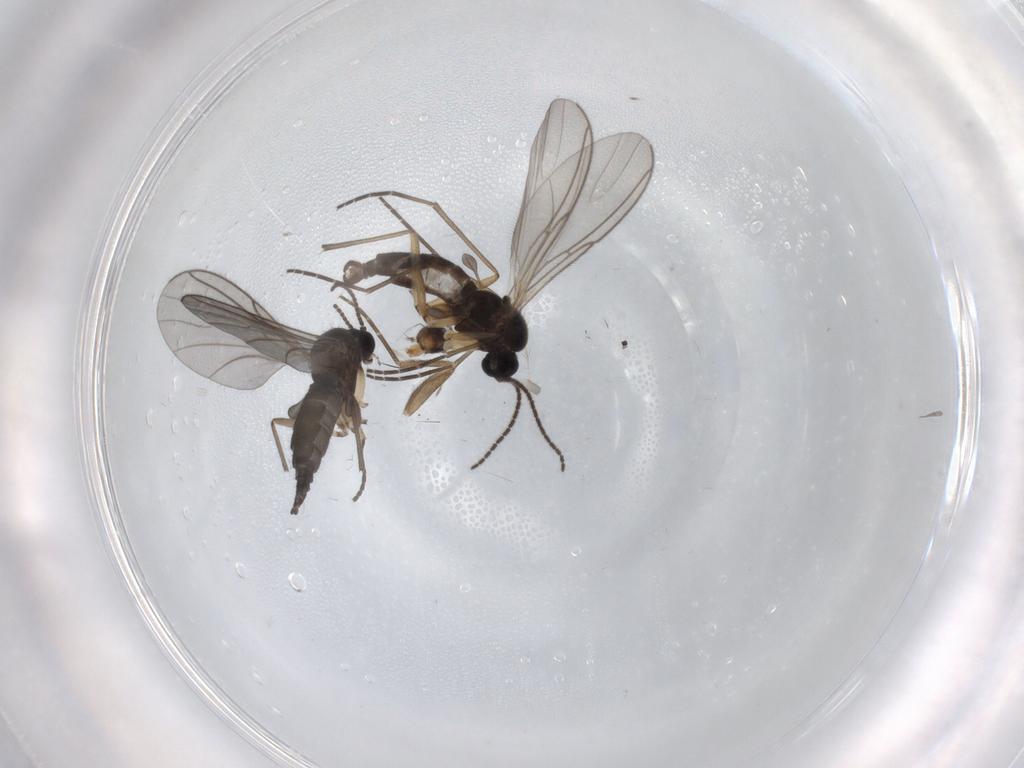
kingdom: Animalia
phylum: Arthropoda
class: Insecta
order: Diptera
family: Sciaridae
